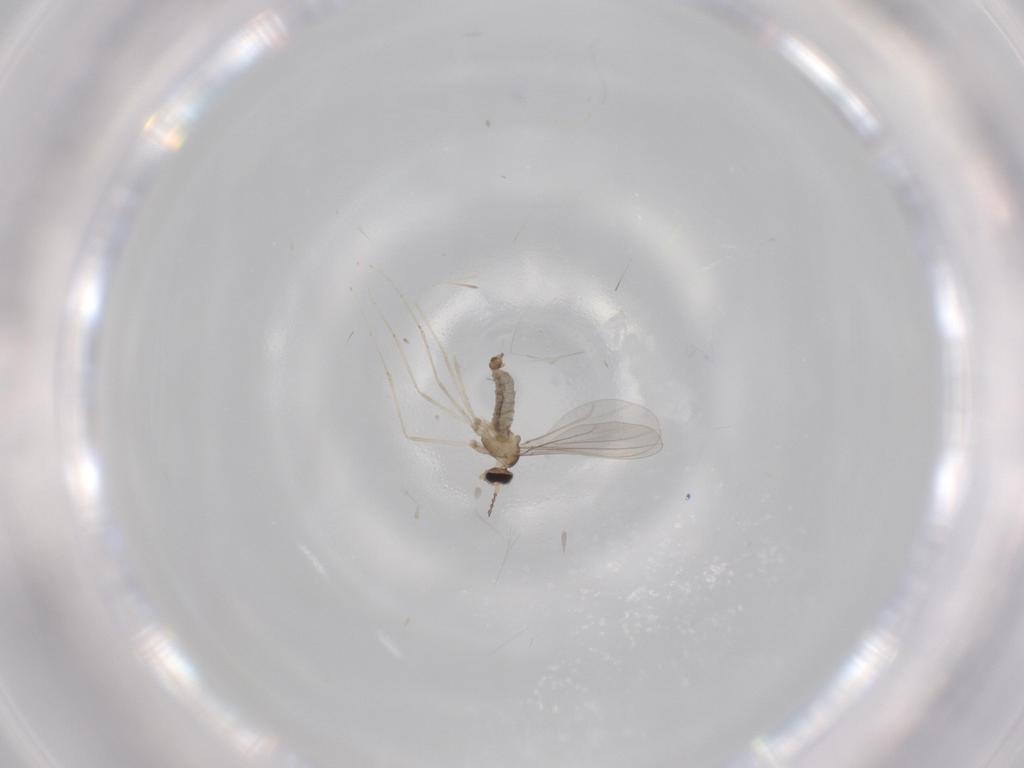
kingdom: Animalia
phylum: Arthropoda
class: Insecta
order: Diptera
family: Cecidomyiidae
